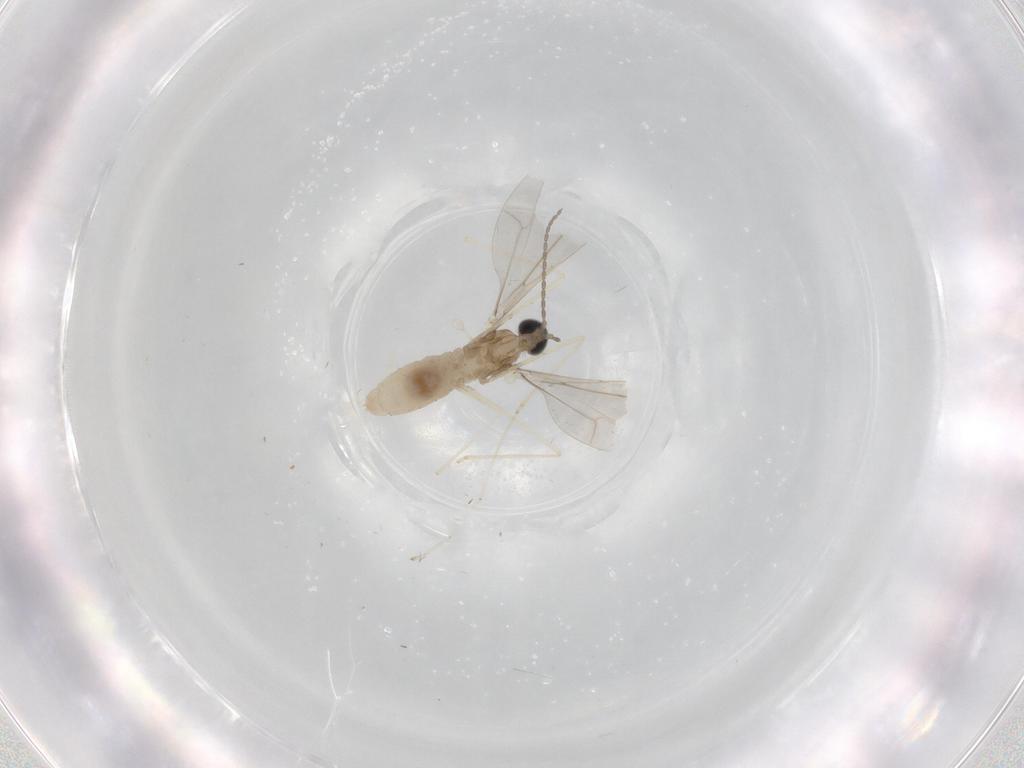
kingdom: Animalia
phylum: Arthropoda
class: Insecta
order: Diptera
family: Cecidomyiidae
